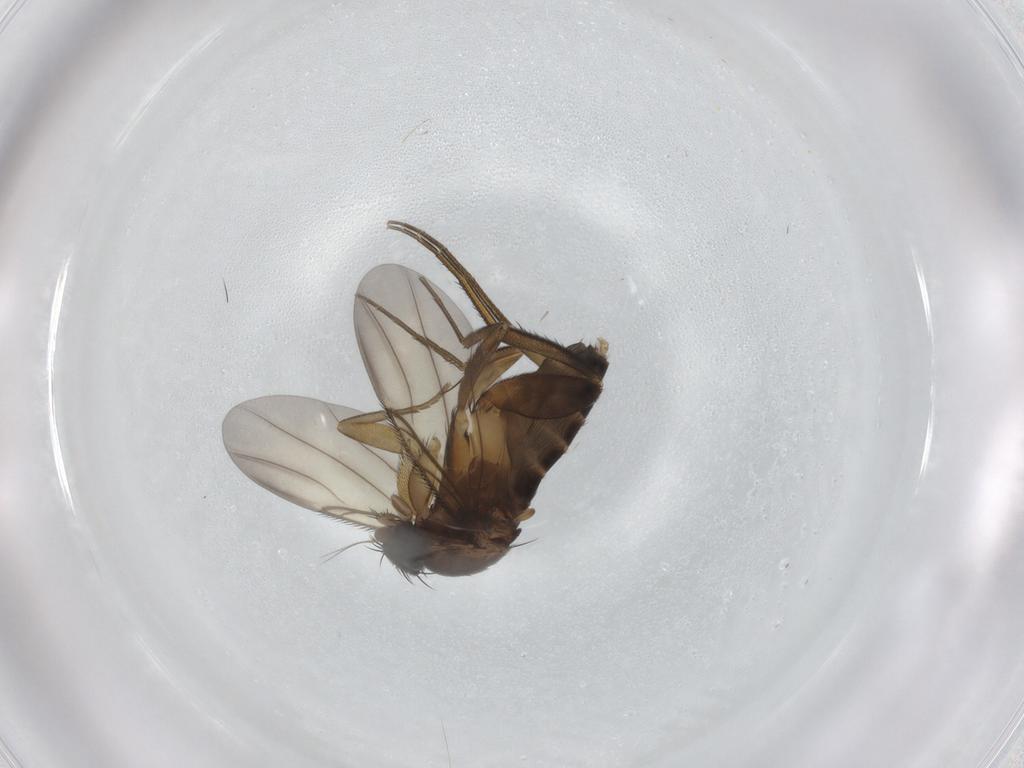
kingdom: Animalia
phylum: Arthropoda
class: Insecta
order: Diptera
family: Phoridae
